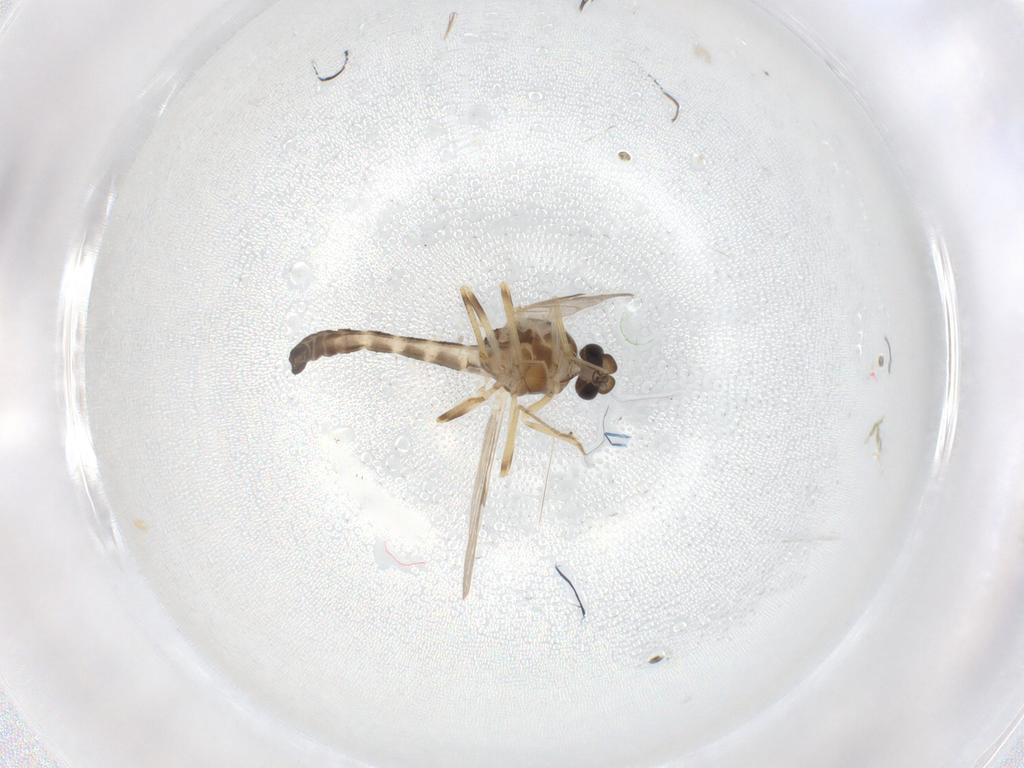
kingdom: Animalia
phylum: Arthropoda
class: Insecta
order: Diptera
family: Ceratopogonidae
